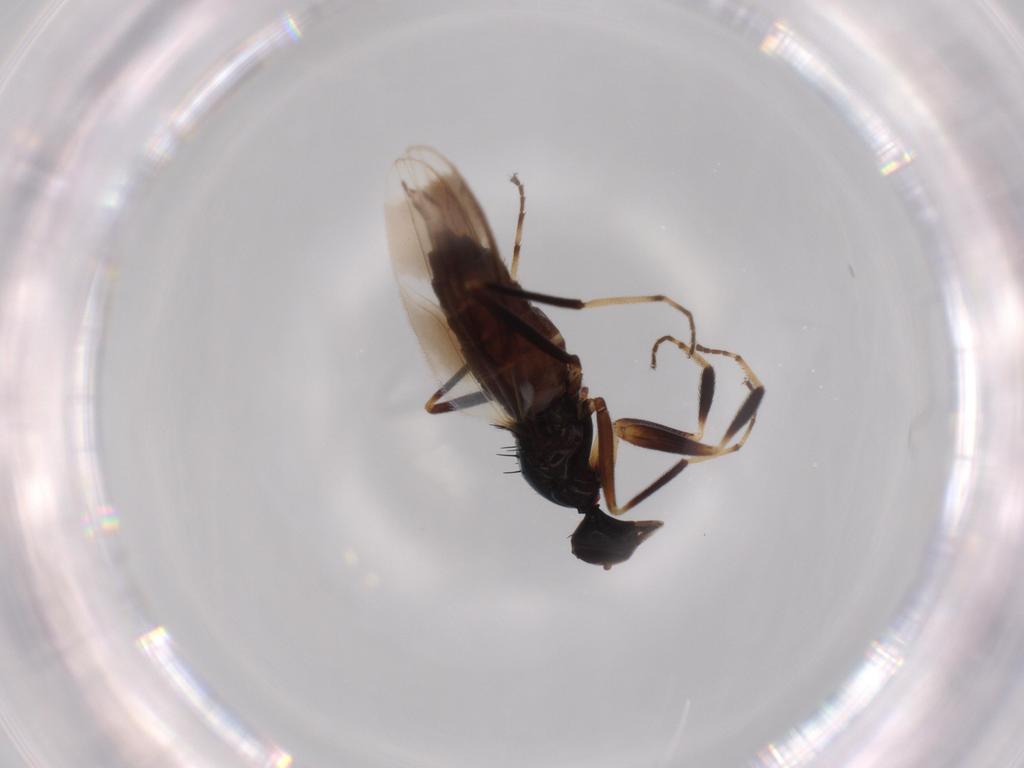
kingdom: Animalia
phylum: Arthropoda
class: Insecta
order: Diptera
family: Hybotidae
